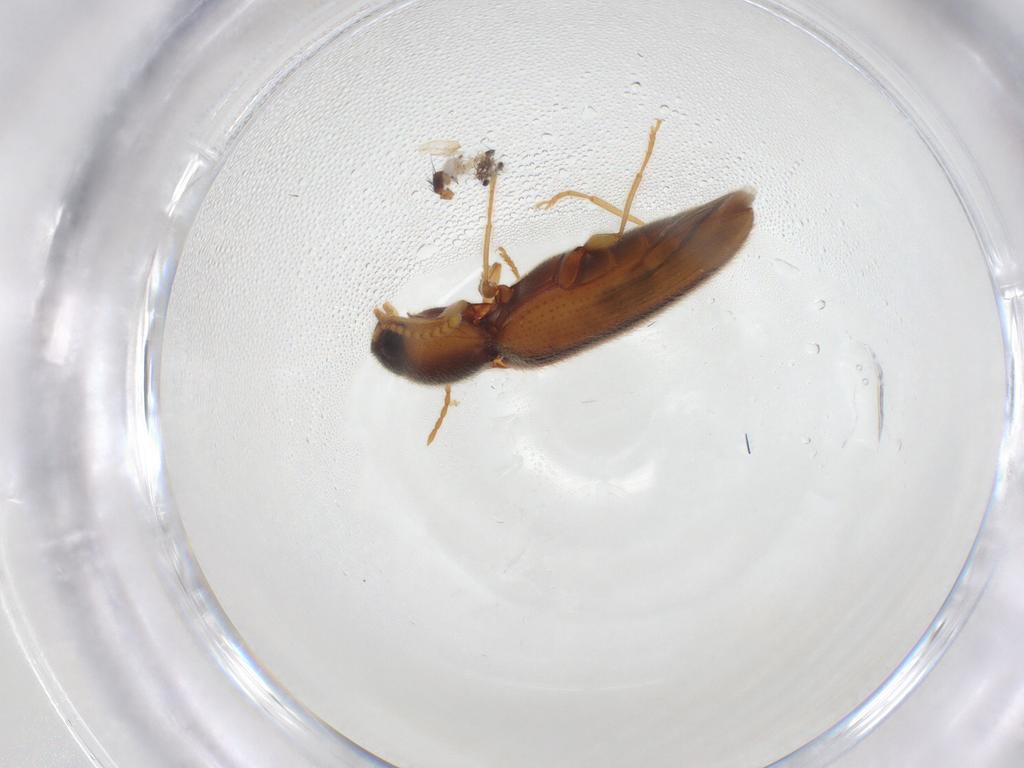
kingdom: Animalia
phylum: Arthropoda
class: Insecta
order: Coleoptera
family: Elateridae
